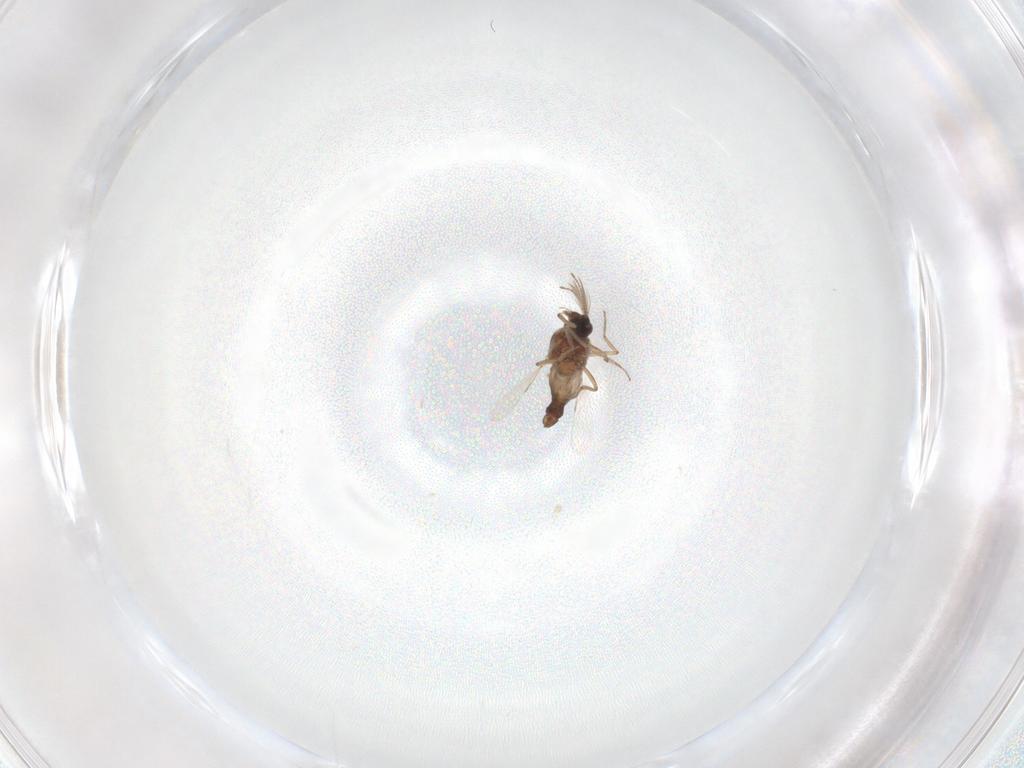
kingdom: Animalia
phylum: Arthropoda
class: Insecta
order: Diptera
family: Ceratopogonidae
